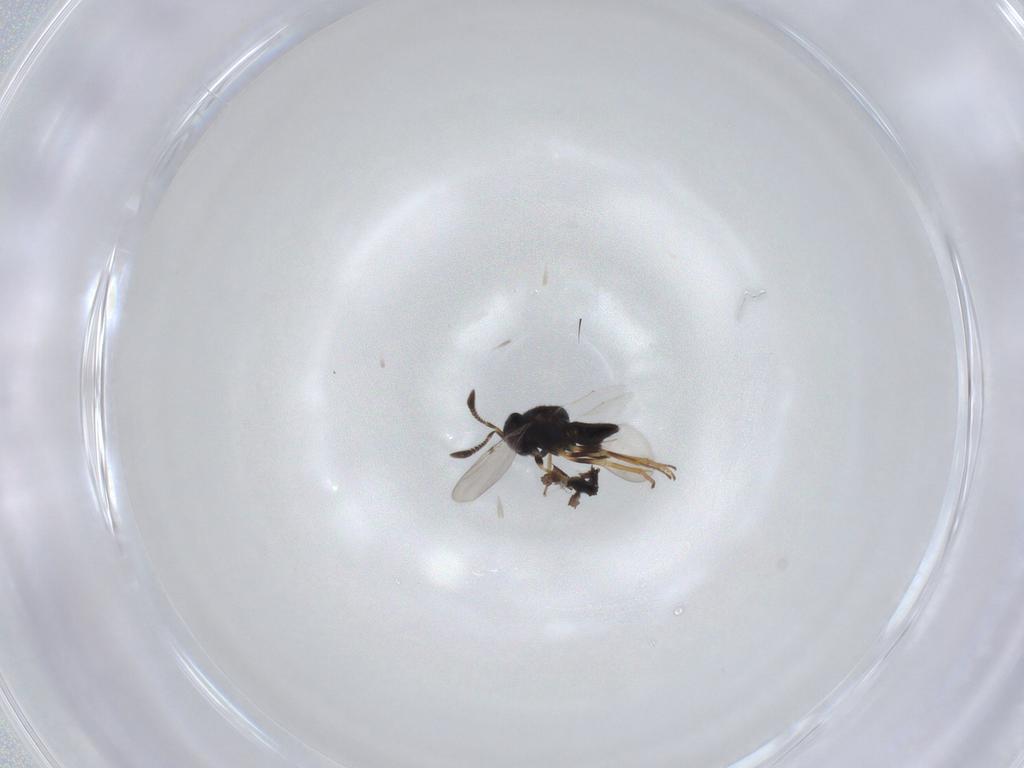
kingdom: Animalia
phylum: Arthropoda
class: Insecta
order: Hymenoptera
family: Encyrtidae
